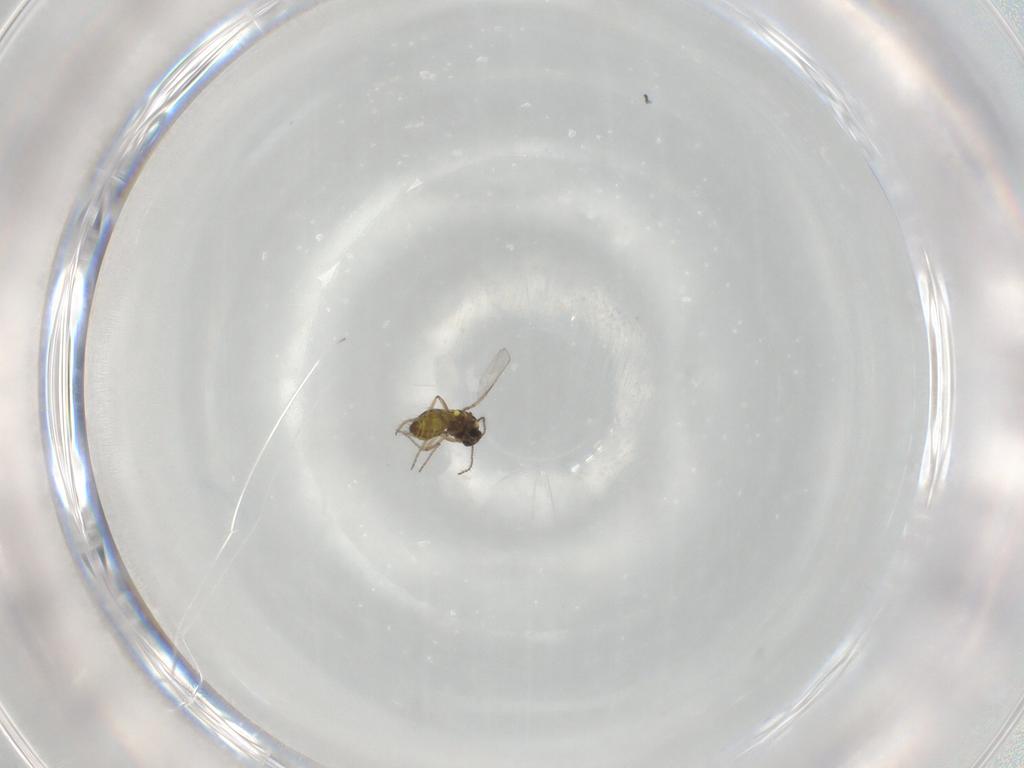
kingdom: Animalia
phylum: Arthropoda
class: Insecta
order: Diptera
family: Ceratopogonidae
